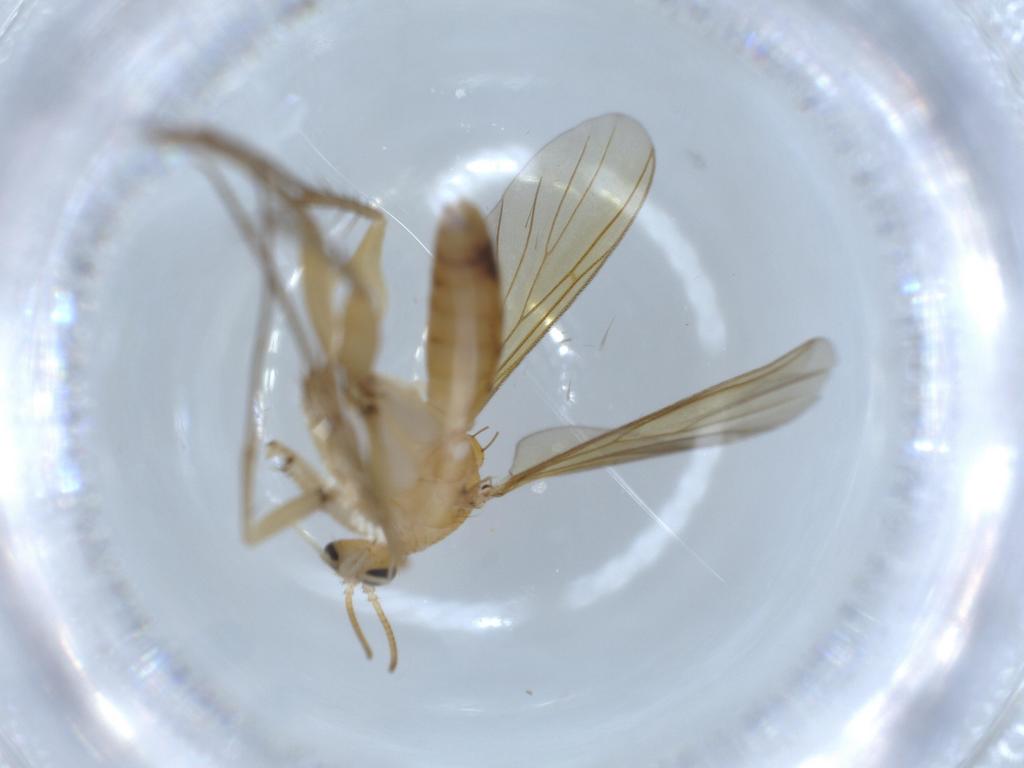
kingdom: Animalia
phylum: Arthropoda
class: Insecta
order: Diptera
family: Mycetophilidae
